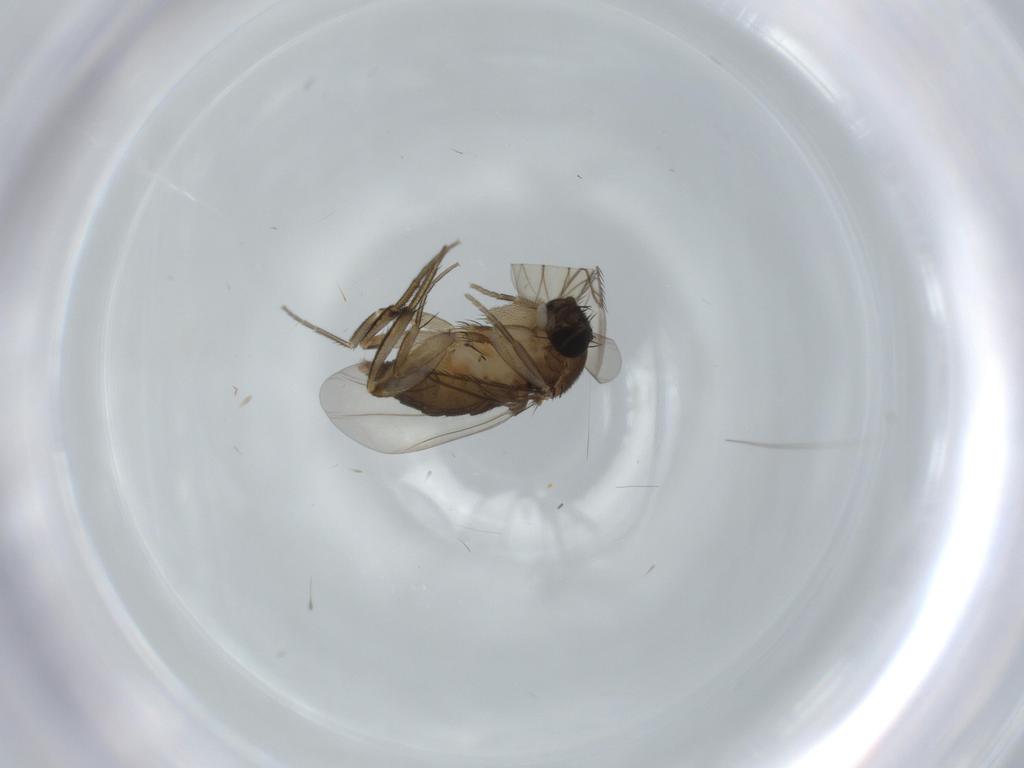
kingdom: Animalia
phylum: Arthropoda
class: Insecta
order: Diptera
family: Phoridae
